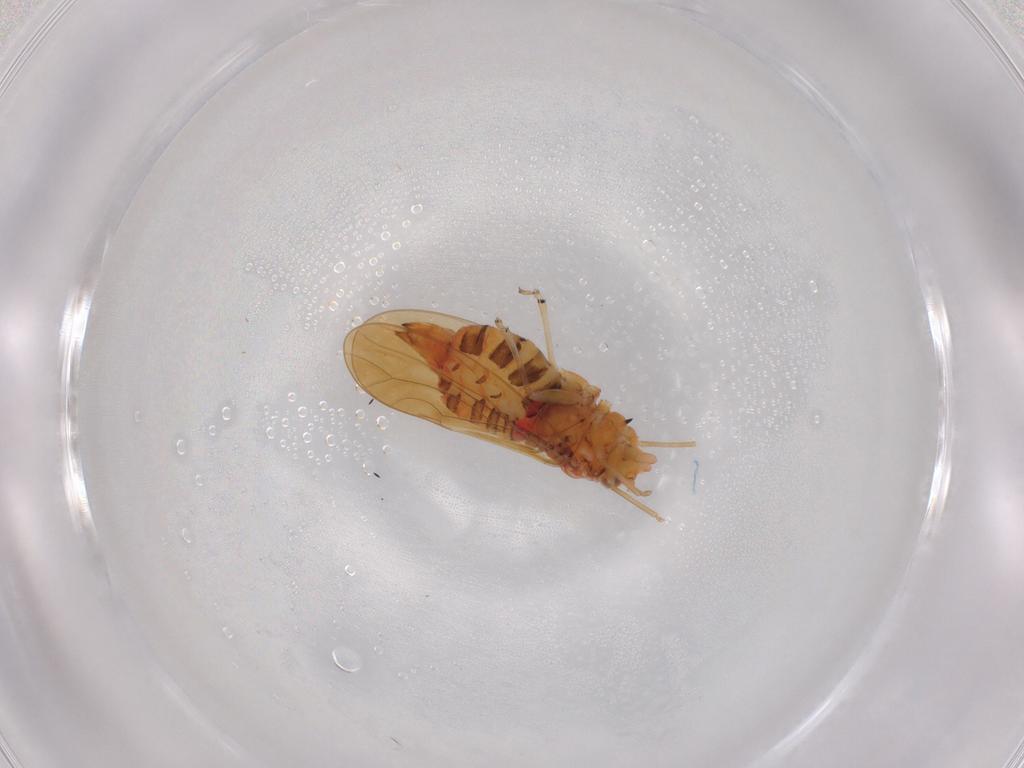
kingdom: Animalia
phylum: Arthropoda
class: Insecta
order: Hemiptera
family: Psyllidae
